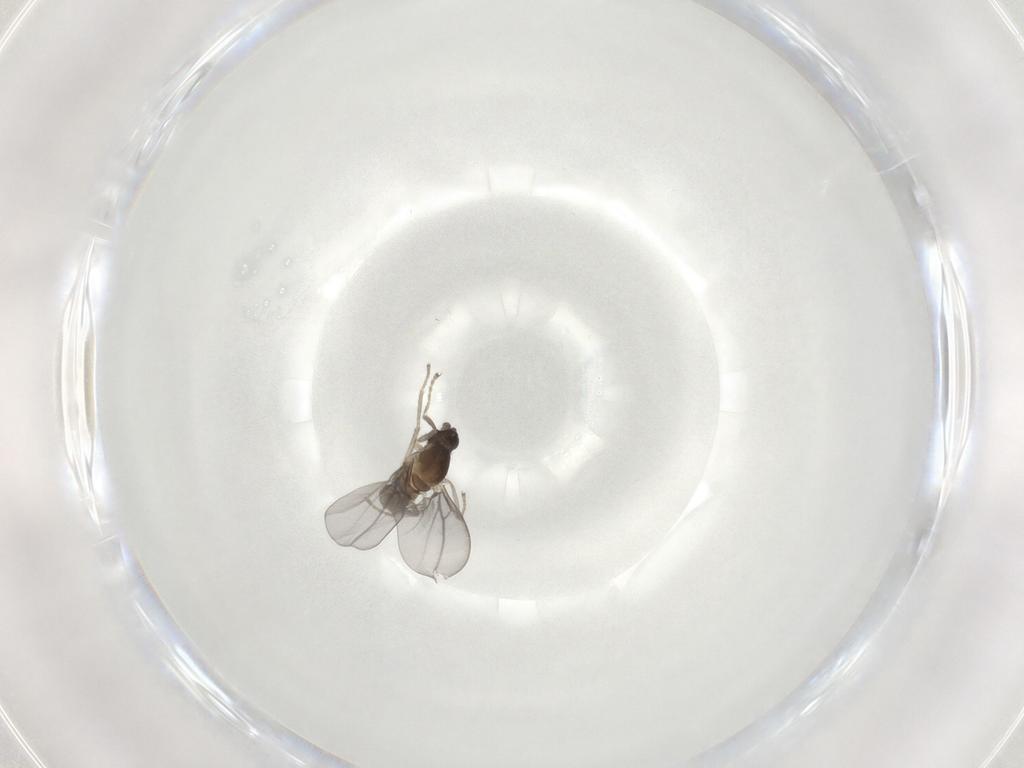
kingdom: Animalia
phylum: Arthropoda
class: Insecta
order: Diptera
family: Cecidomyiidae
